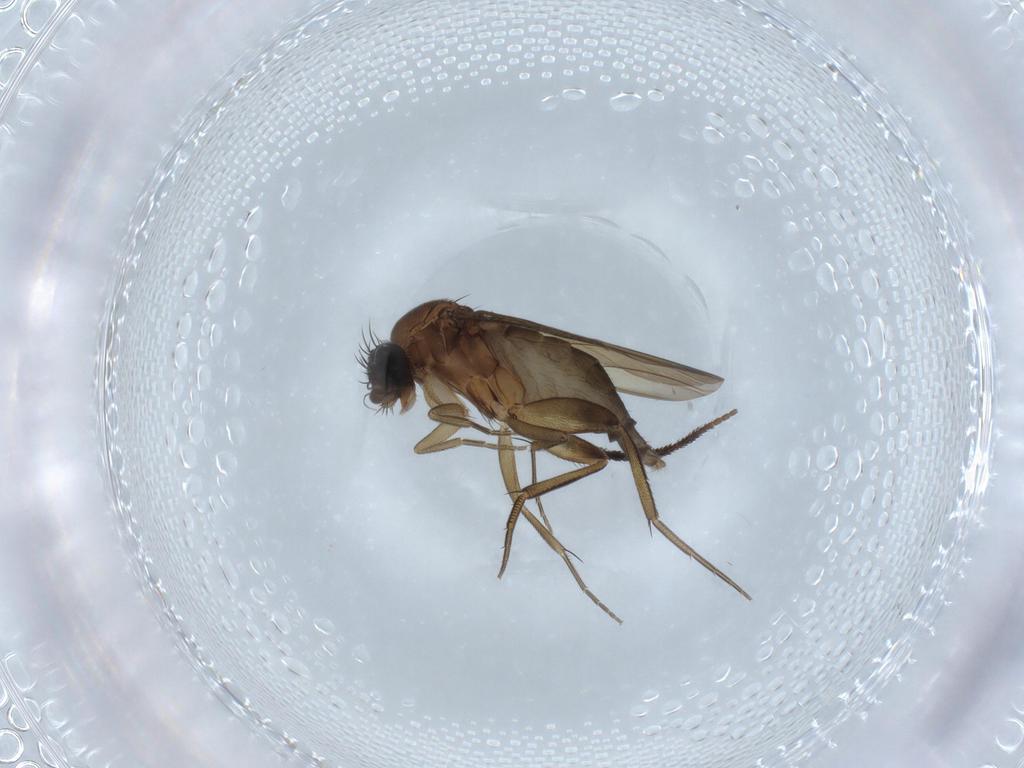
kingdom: Animalia
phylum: Arthropoda
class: Insecta
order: Diptera
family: Phoridae
